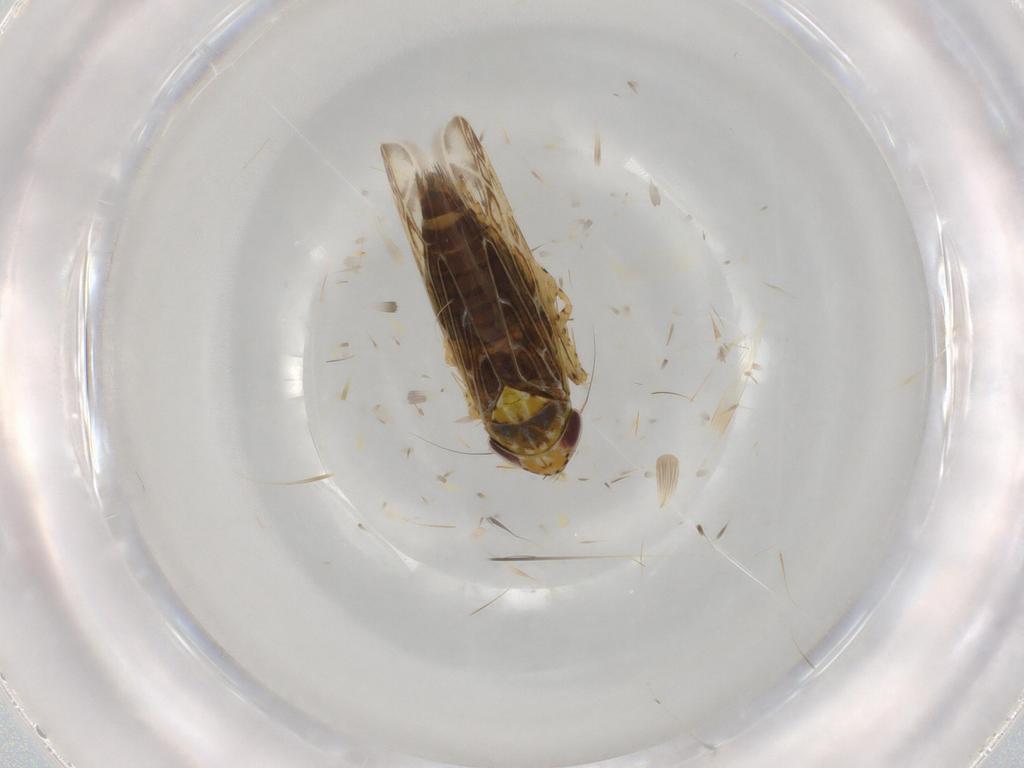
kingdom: Animalia
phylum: Arthropoda
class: Insecta
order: Hemiptera
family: Cicadellidae
